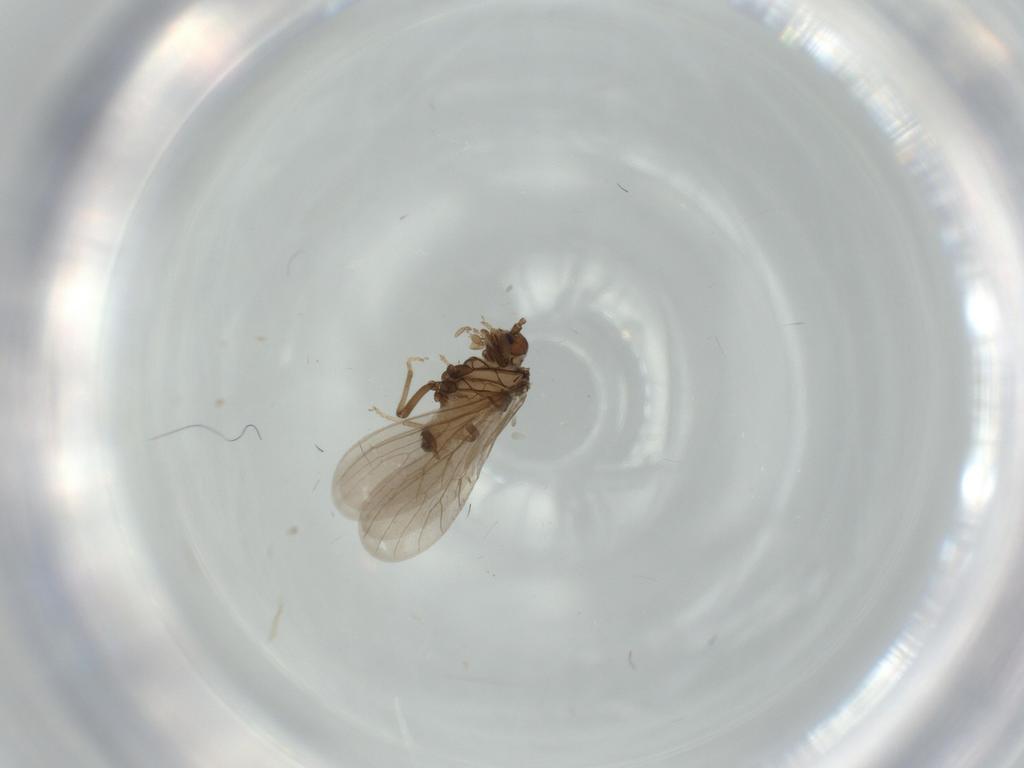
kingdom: Animalia
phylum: Arthropoda
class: Insecta
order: Neuroptera
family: Coniopterygidae
